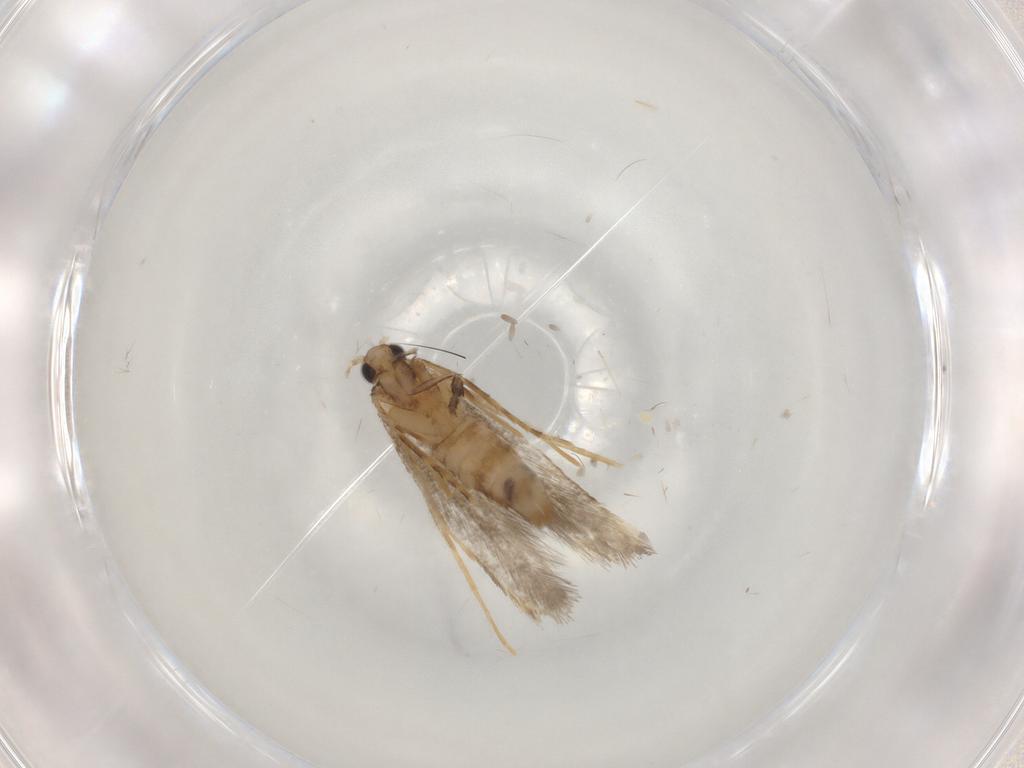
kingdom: Animalia
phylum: Arthropoda
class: Insecta
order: Lepidoptera
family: Tineidae
